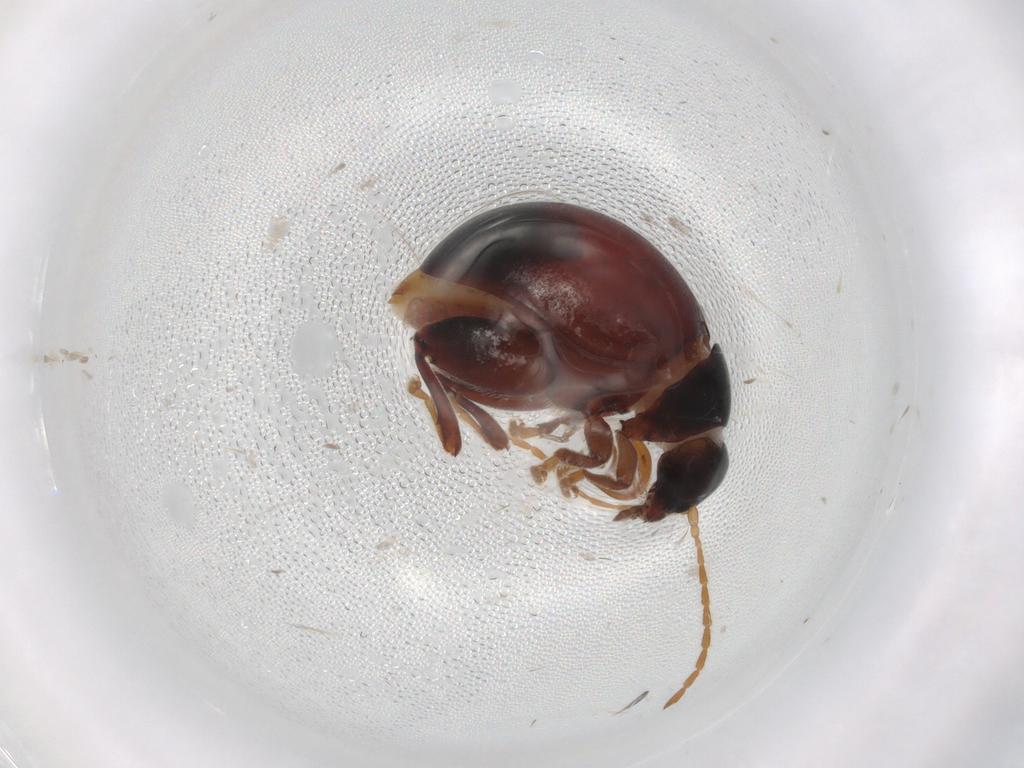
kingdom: Animalia
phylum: Arthropoda
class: Insecta
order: Coleoptera
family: Chrysomelidae
